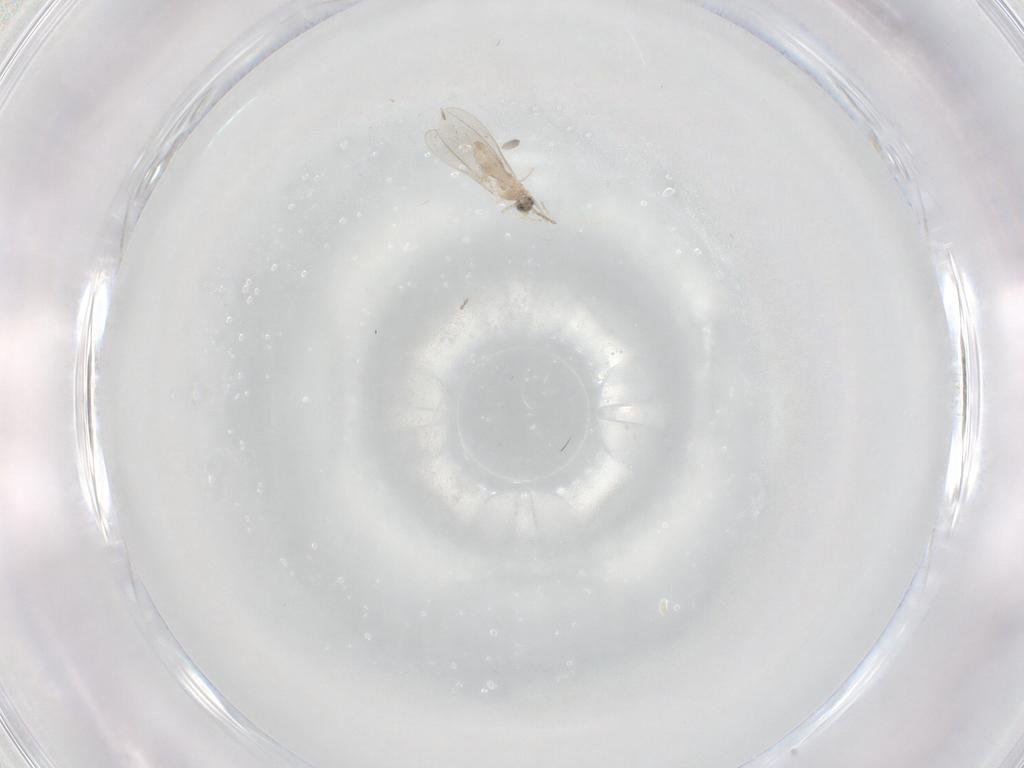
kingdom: Animalia
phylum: Arthropoda
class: Insecta
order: Diptera
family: Cecidomyiidae
